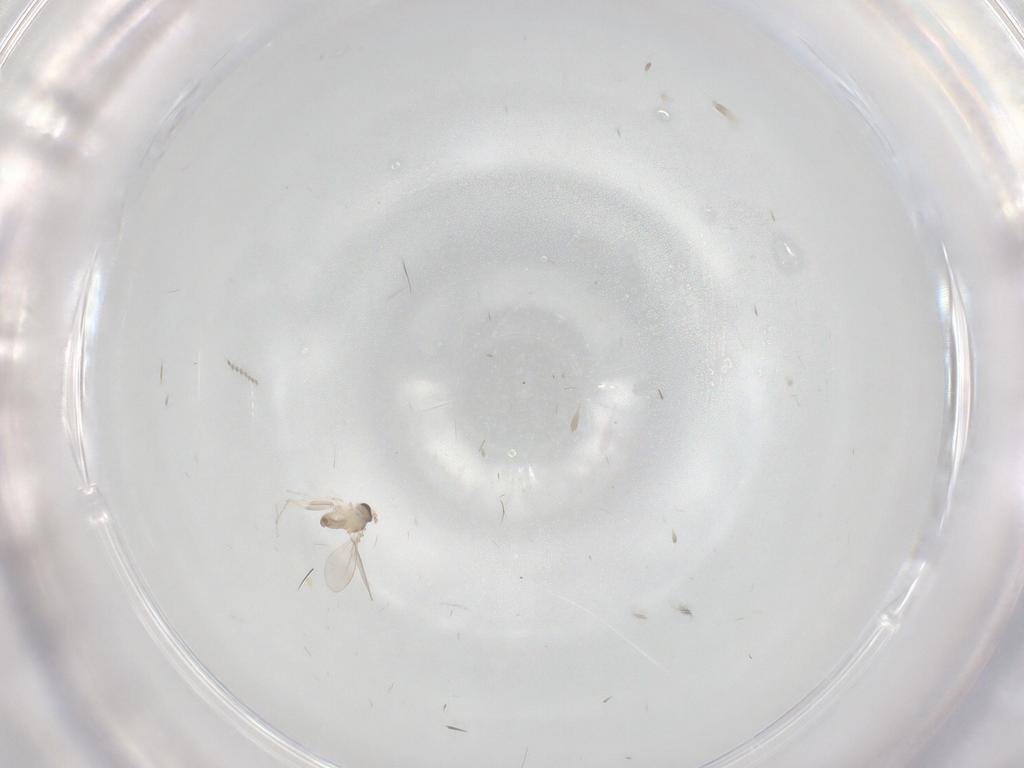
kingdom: Animalia
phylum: Arthropoda
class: Insecta
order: Diptera
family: Cecidomyiidae
